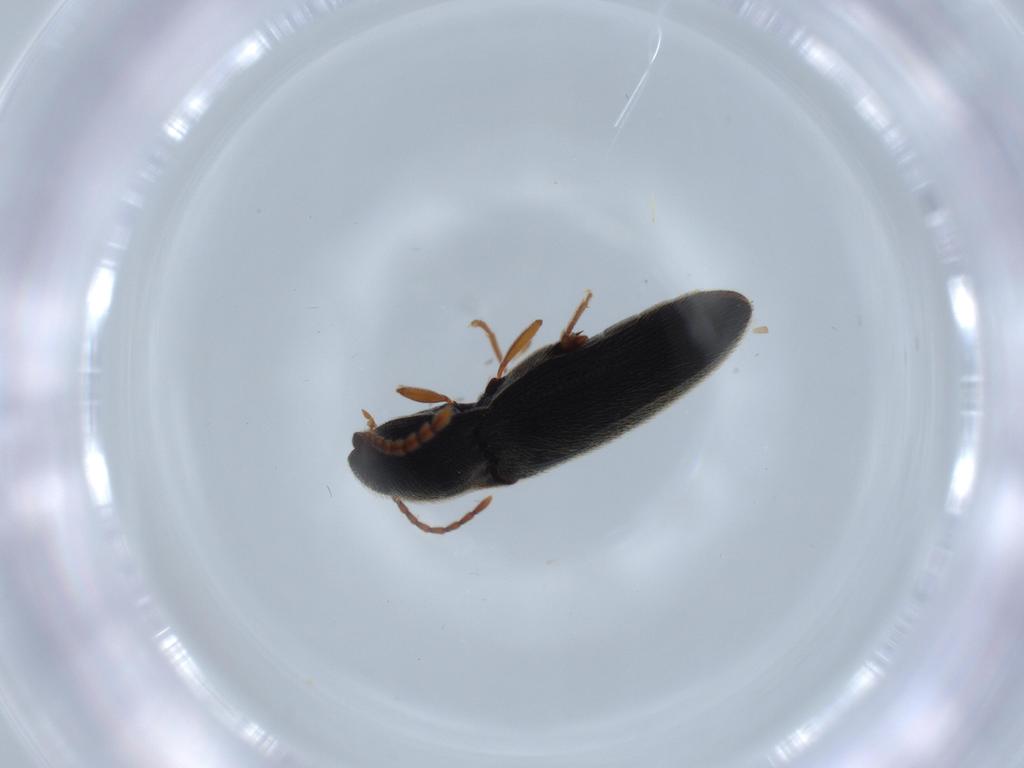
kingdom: Animalia
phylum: Arthropoda
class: Insecta
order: Coleoptera
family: Elateridae
